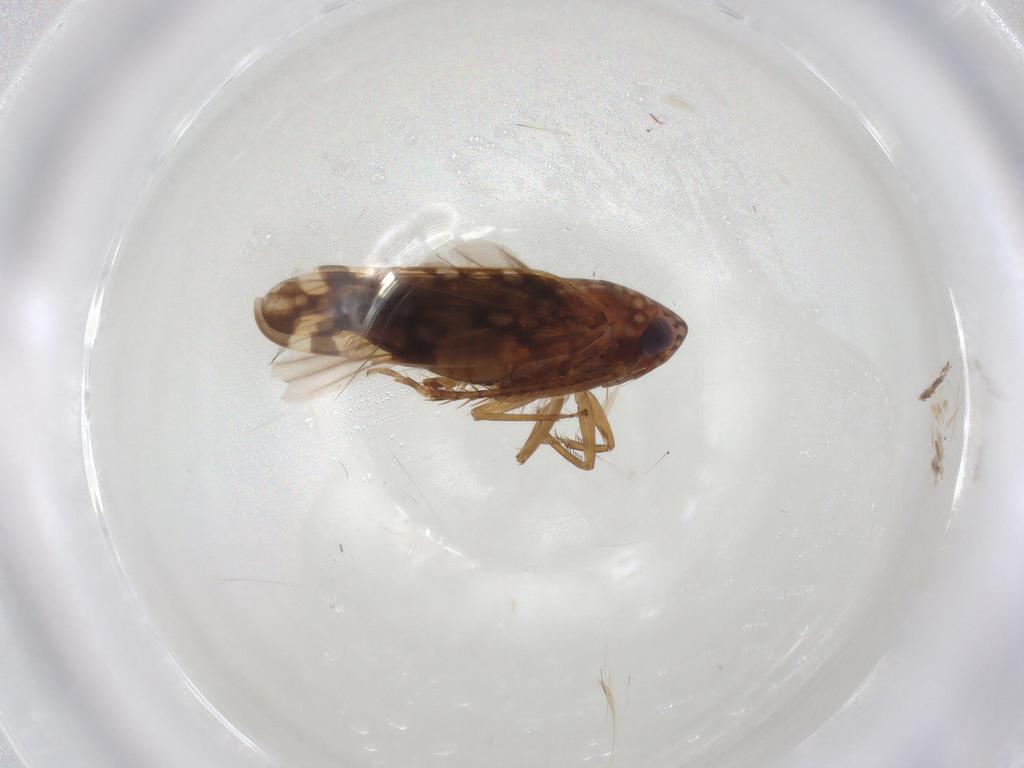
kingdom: Animalia
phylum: Arthropoda
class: Insecta
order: Hemiptera
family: Cicadellidae
